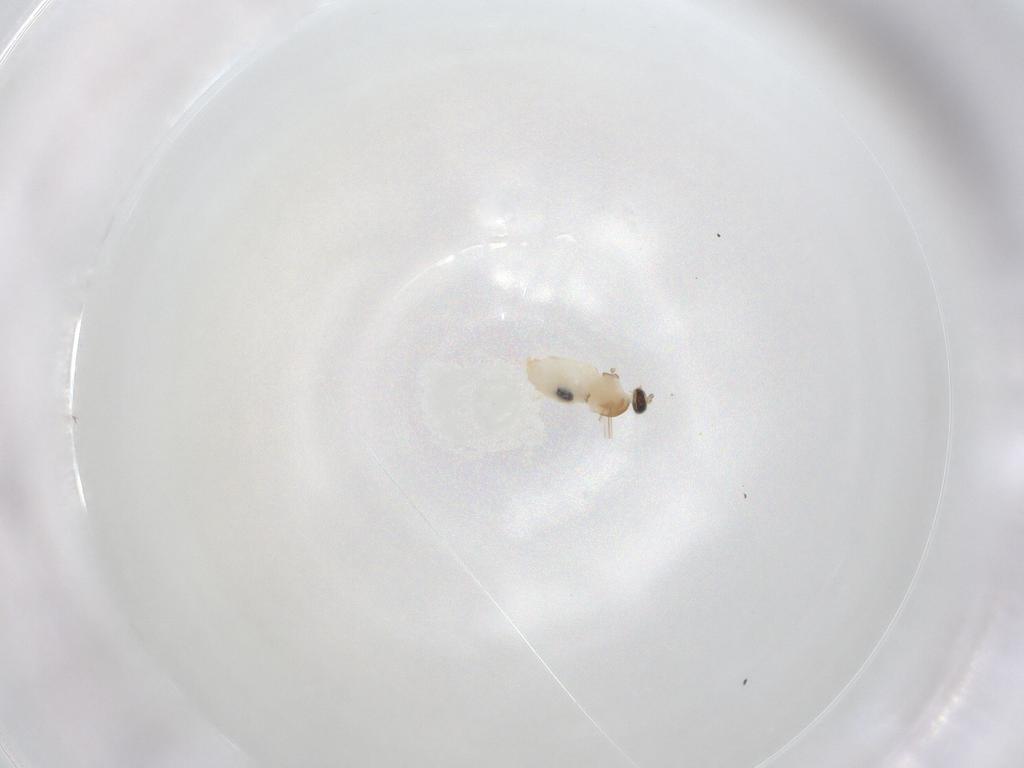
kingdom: Animalia
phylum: Arthropoda
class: Insecta
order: Diptera
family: Cecidomyiidae
